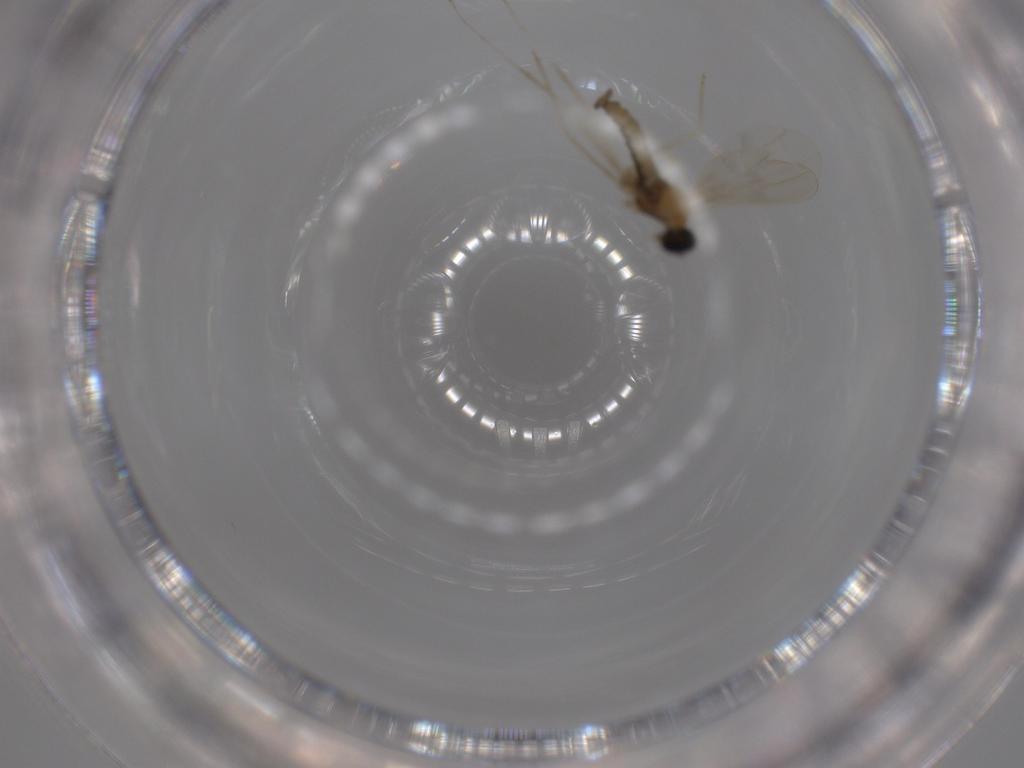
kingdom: Animalia
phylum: Arthropoda
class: Insecta
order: Diptera
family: Cecidomyiidae
